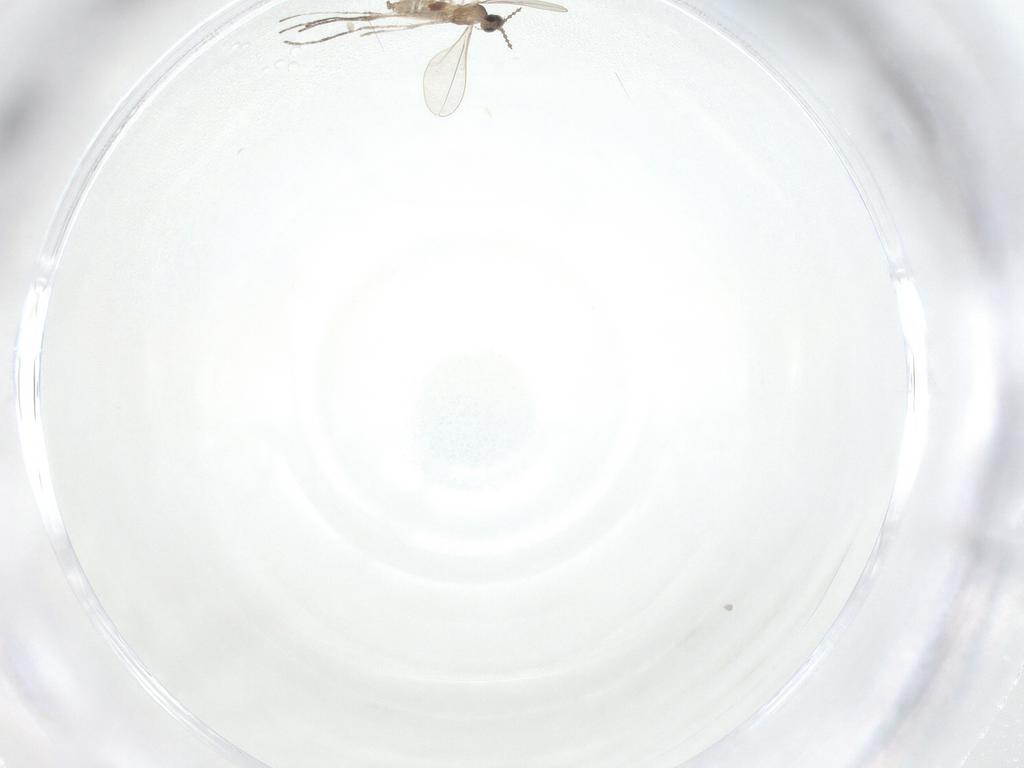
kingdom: Animalia
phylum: Arthropoda
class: Insecta
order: Diptera
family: Cecidomyiidae
